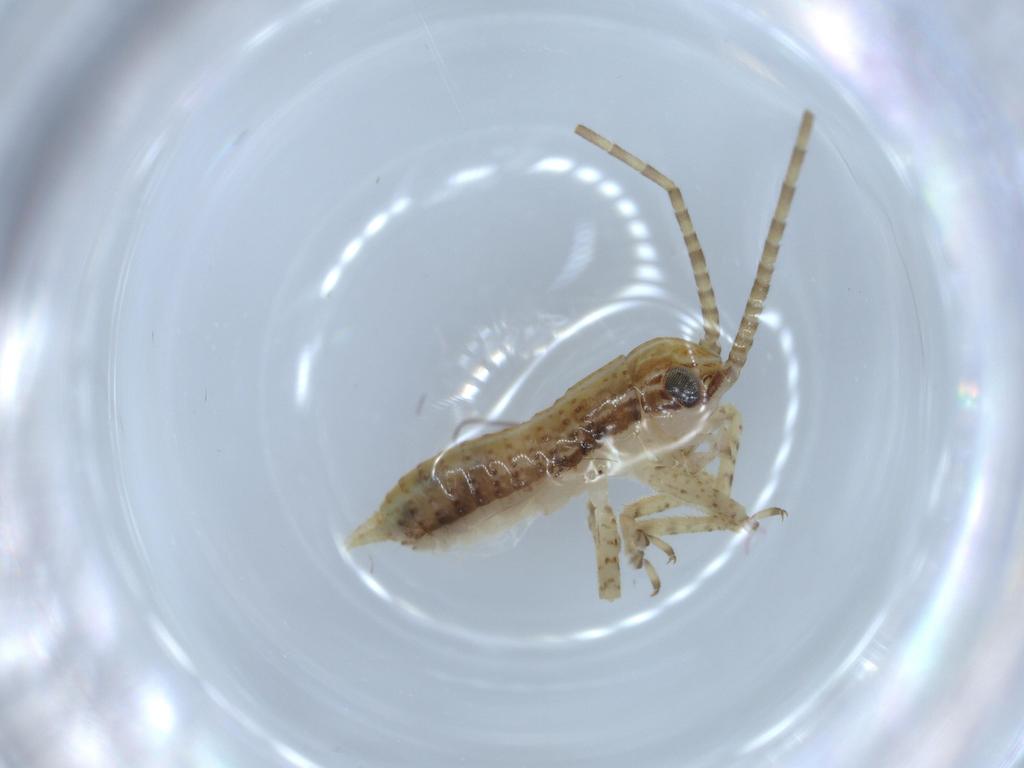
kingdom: Animalia
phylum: Arthropoda
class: Insecta
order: Orthoptera
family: Gryllidae
